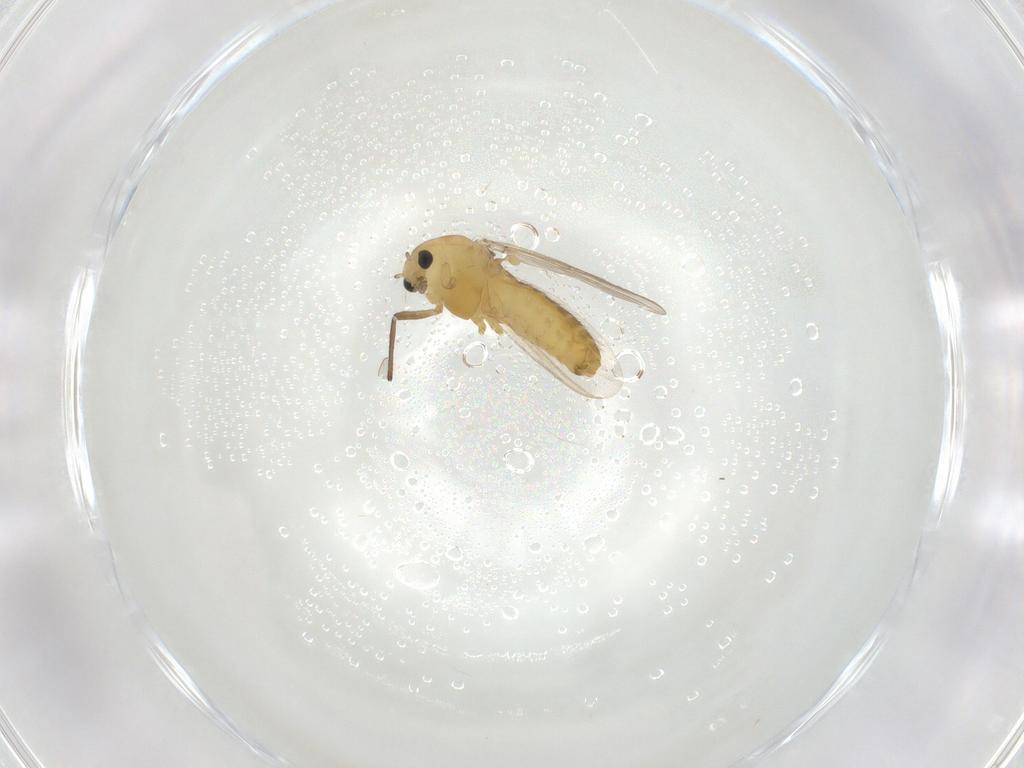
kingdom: Animalia
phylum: Arthropoda
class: Insecta
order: Diptera
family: Chironomidae
